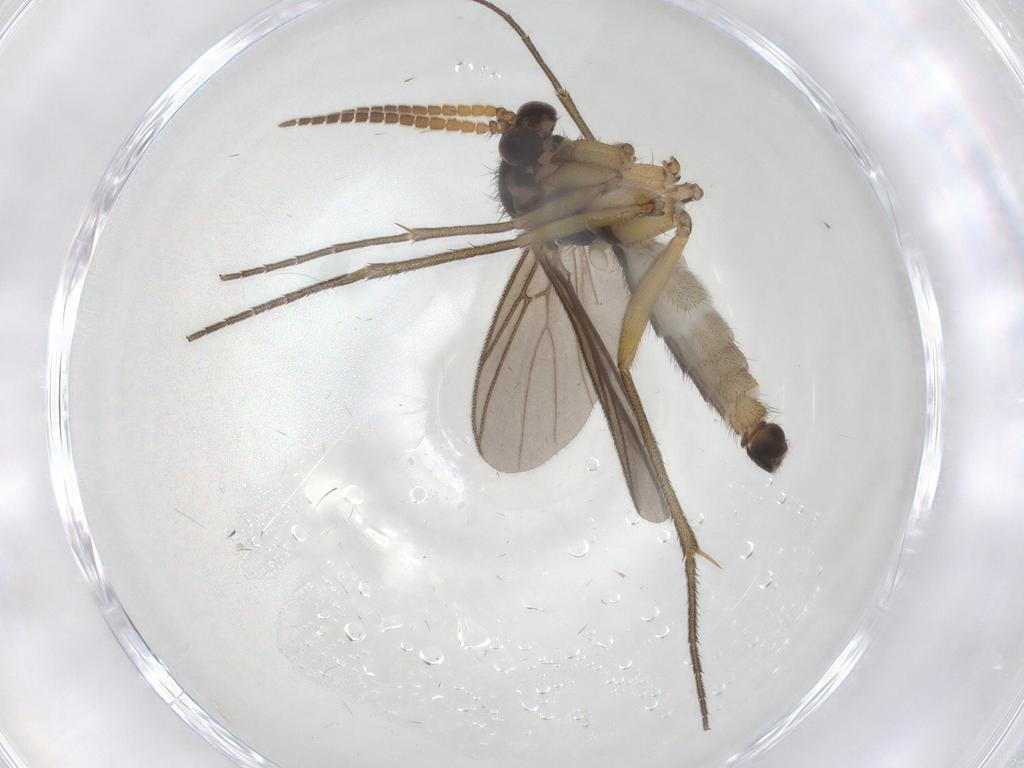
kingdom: Animalia
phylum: Arthropoda
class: Insecta
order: Diptera
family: Mycetophilidae
